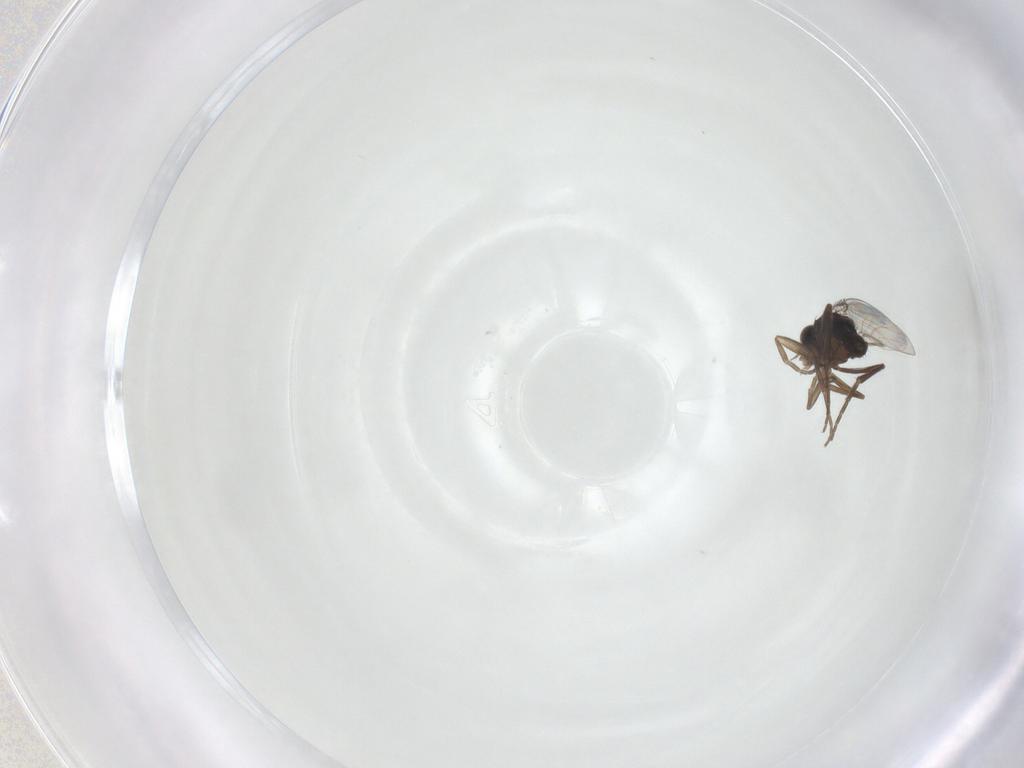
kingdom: Animalia
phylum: Arthropoda
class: Insecta
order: Diptera
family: Phoridae
